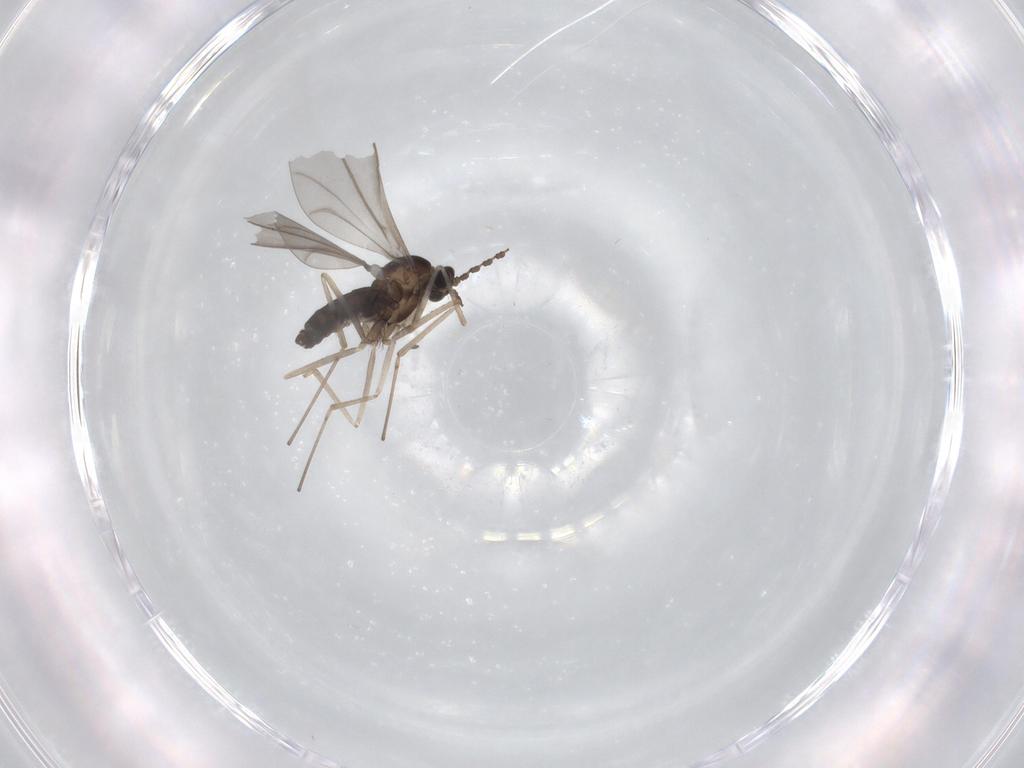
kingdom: Animalia
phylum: Arthropoda
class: Insecta
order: Diptera
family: Cecidomyiidae
